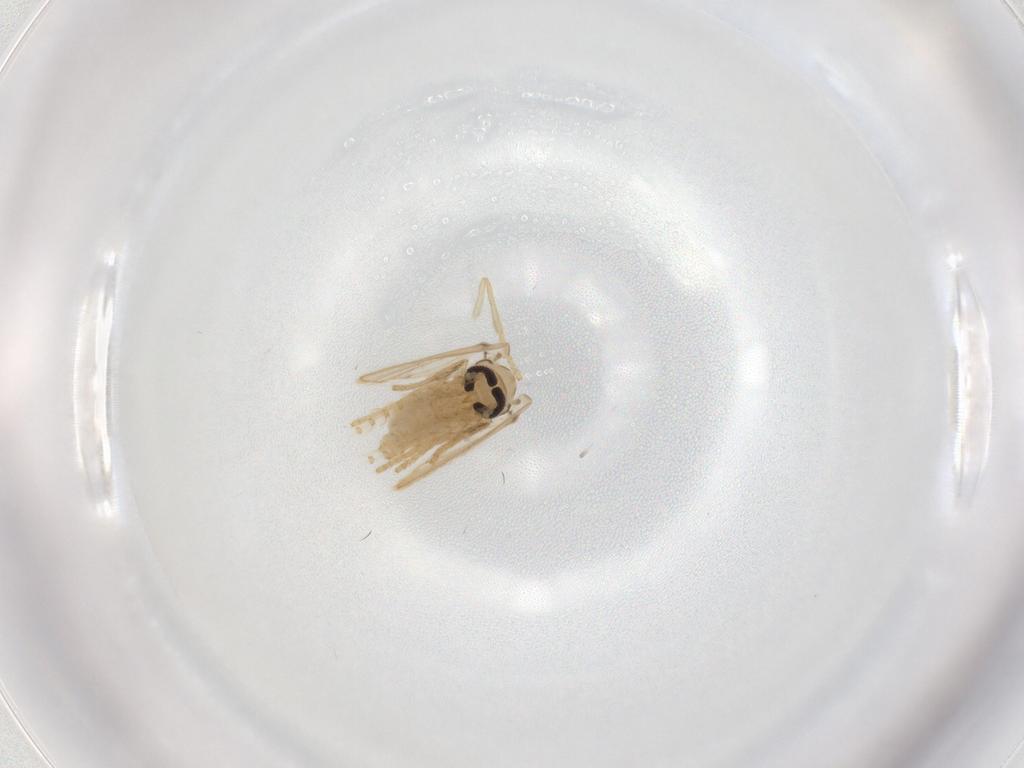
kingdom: Animalia
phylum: Arthropoda
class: Insecta
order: Diptera
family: Psychodidae
